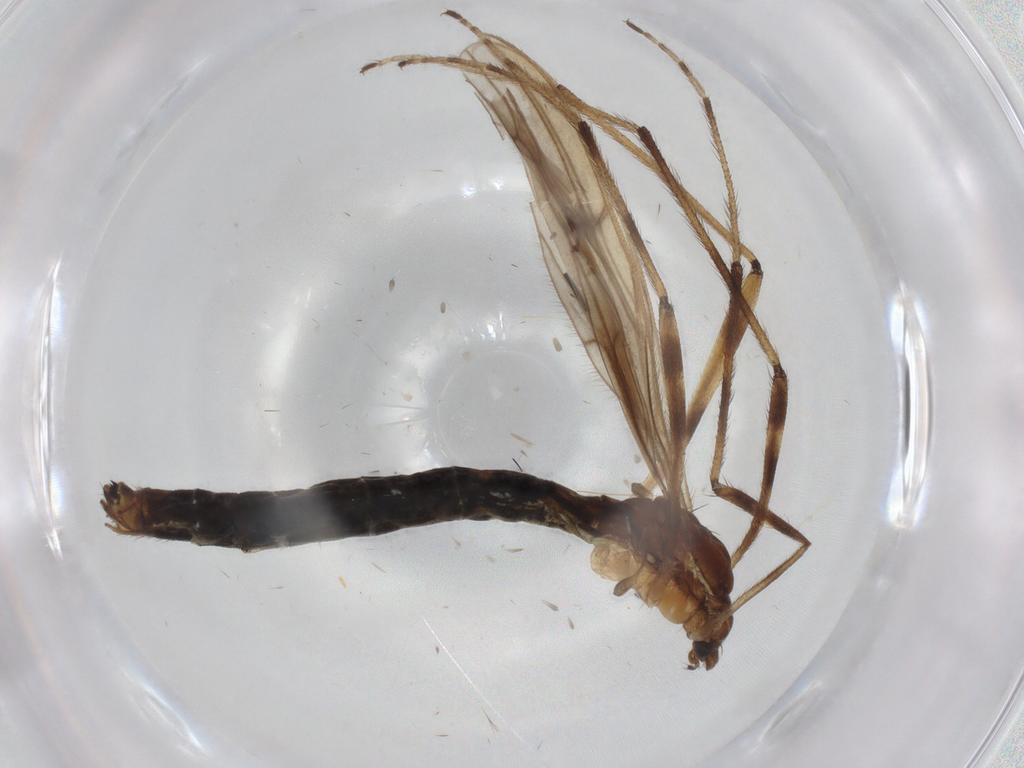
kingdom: Animalia
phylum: Arthropoda
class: Insecta
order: Diptera
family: Limoniidae
